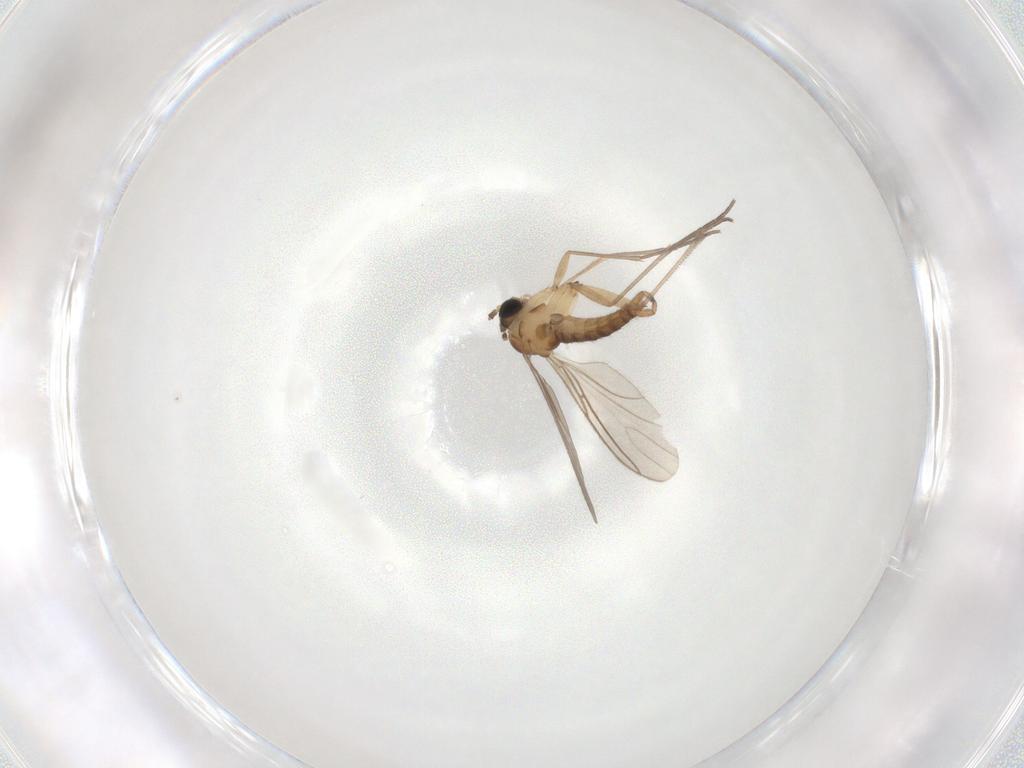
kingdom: Animalia
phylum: Arthropoda
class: Insecta
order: Diptera
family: Sciaridae
